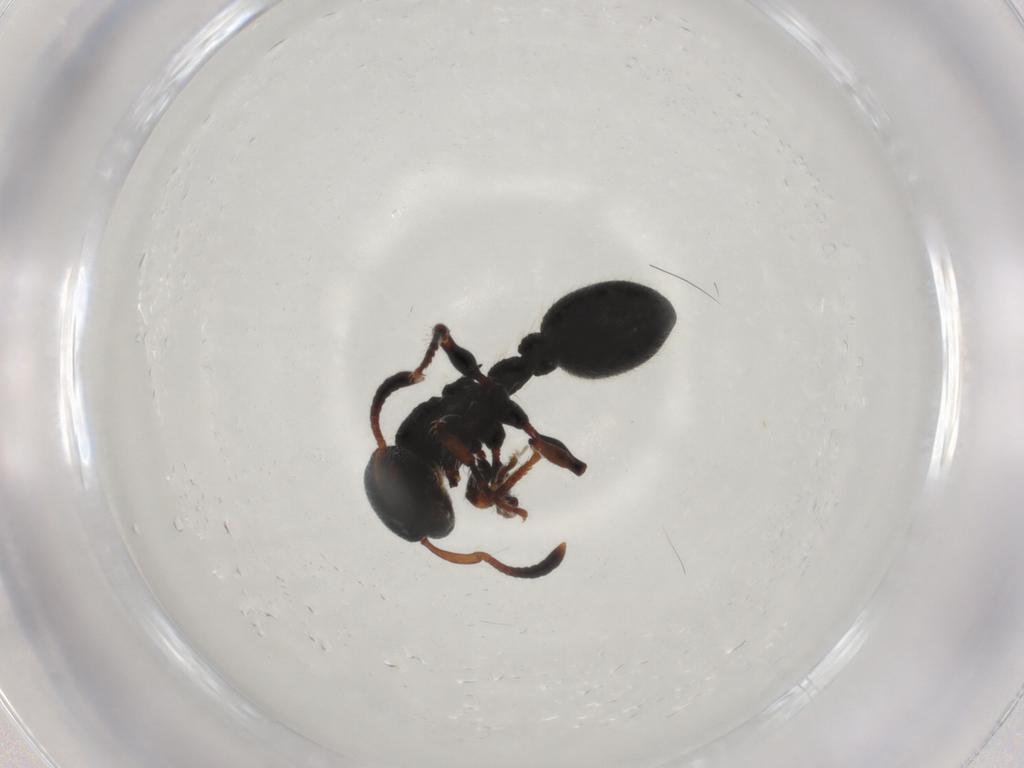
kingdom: Animalia
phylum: Arthropoda
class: Insecta
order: Hymenoptera
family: Formicidae
